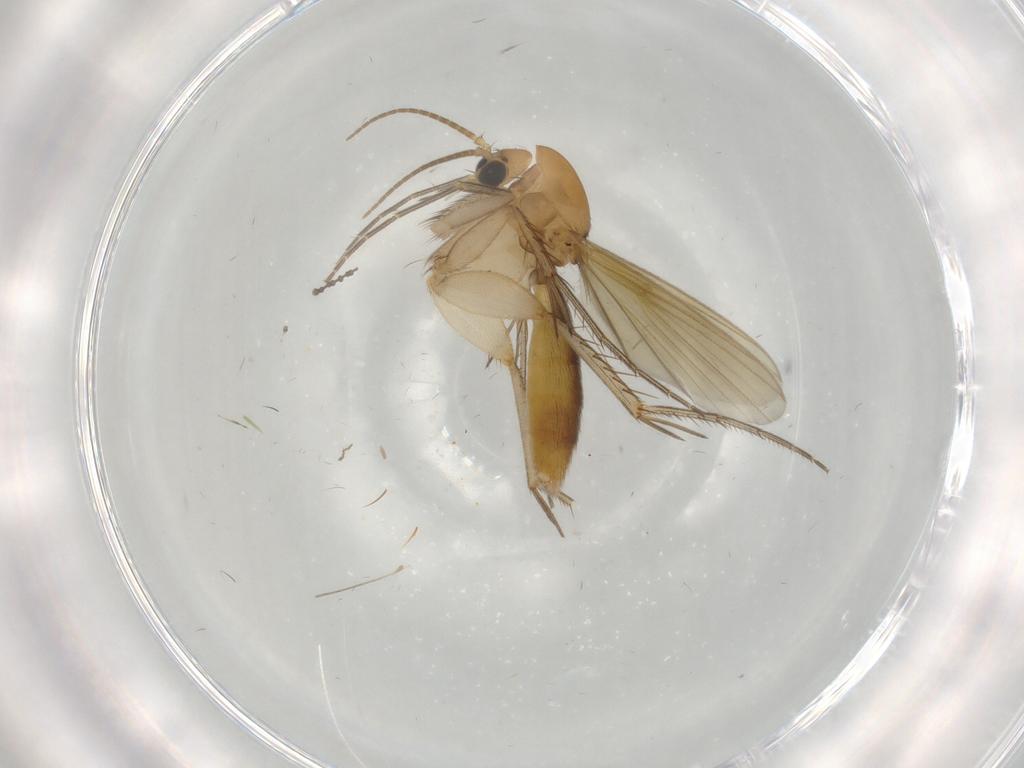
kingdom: Animalia
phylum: Arthropoda
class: Insecta
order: Diptera
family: Mycetophilidae
